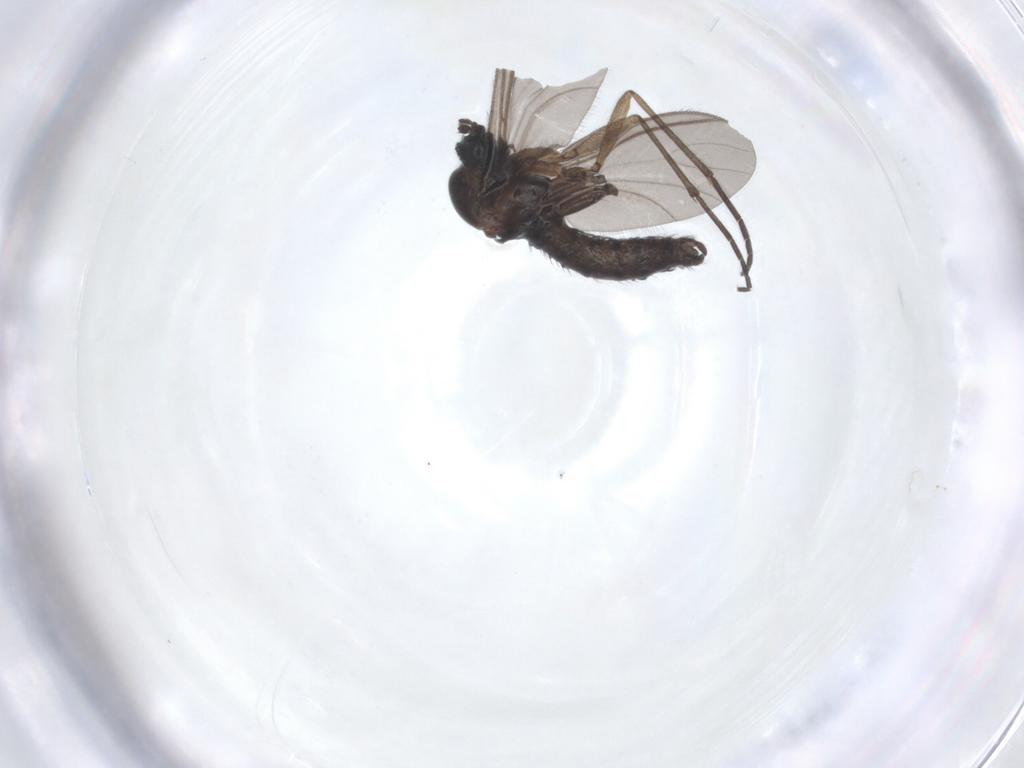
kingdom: Animalia
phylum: Arthropoda
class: Insecta
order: Diptera
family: Sciaridae
